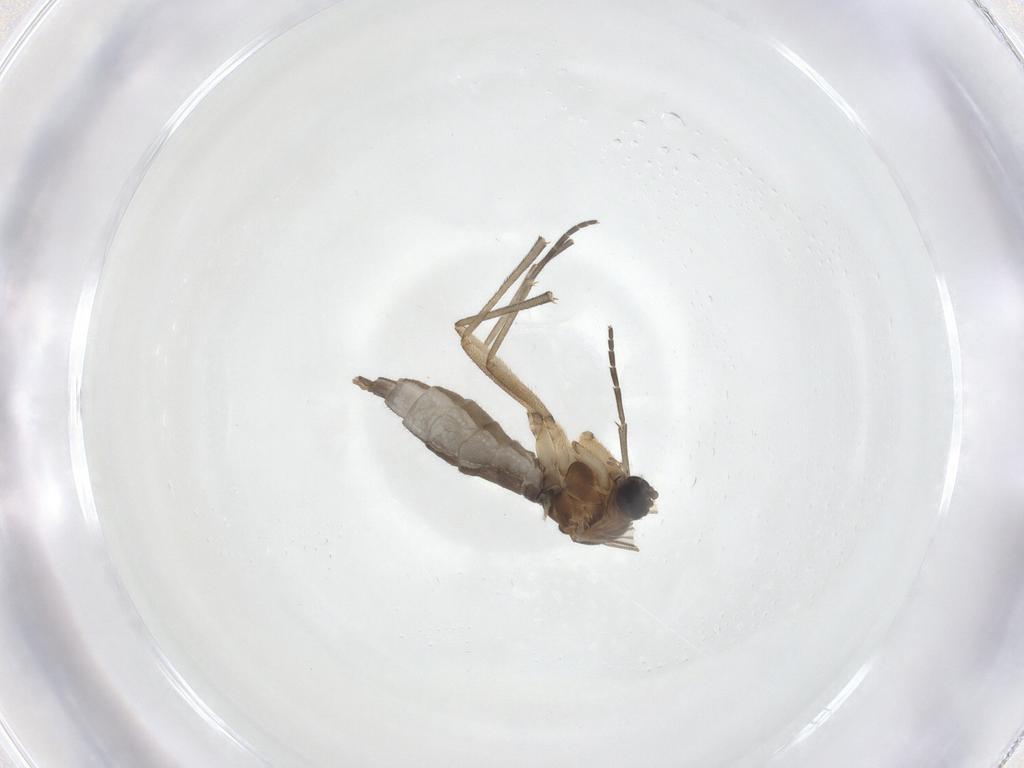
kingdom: Animalia
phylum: Arthropoda
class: Insecta
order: Diptera
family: Sciaridae
